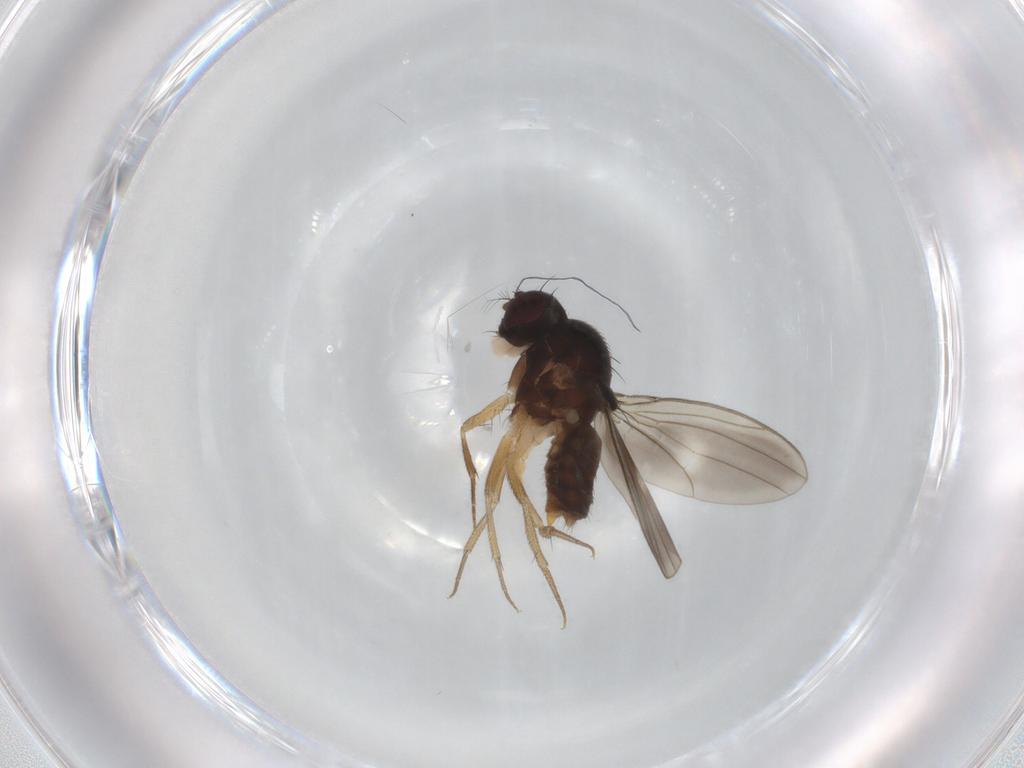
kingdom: Animalia
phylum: Arthropoda
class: Insecta
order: Diptera
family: Drosophilidae
